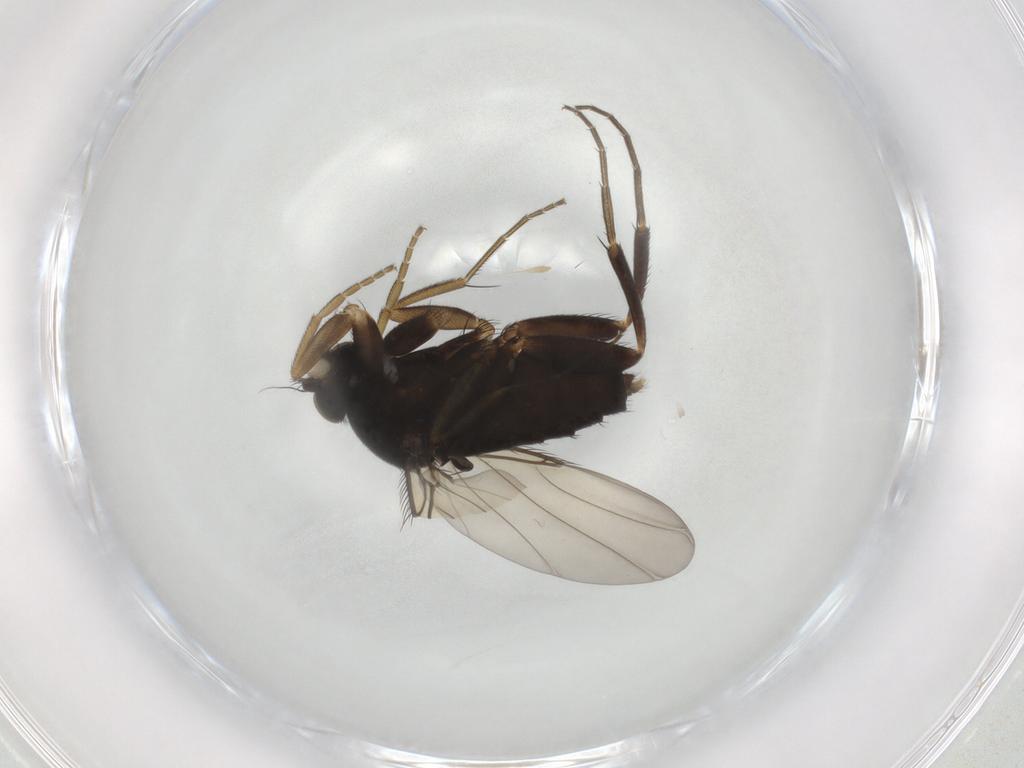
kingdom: Animalia
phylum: Arthropoda
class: Insecta
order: Diptera
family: Phoridae
